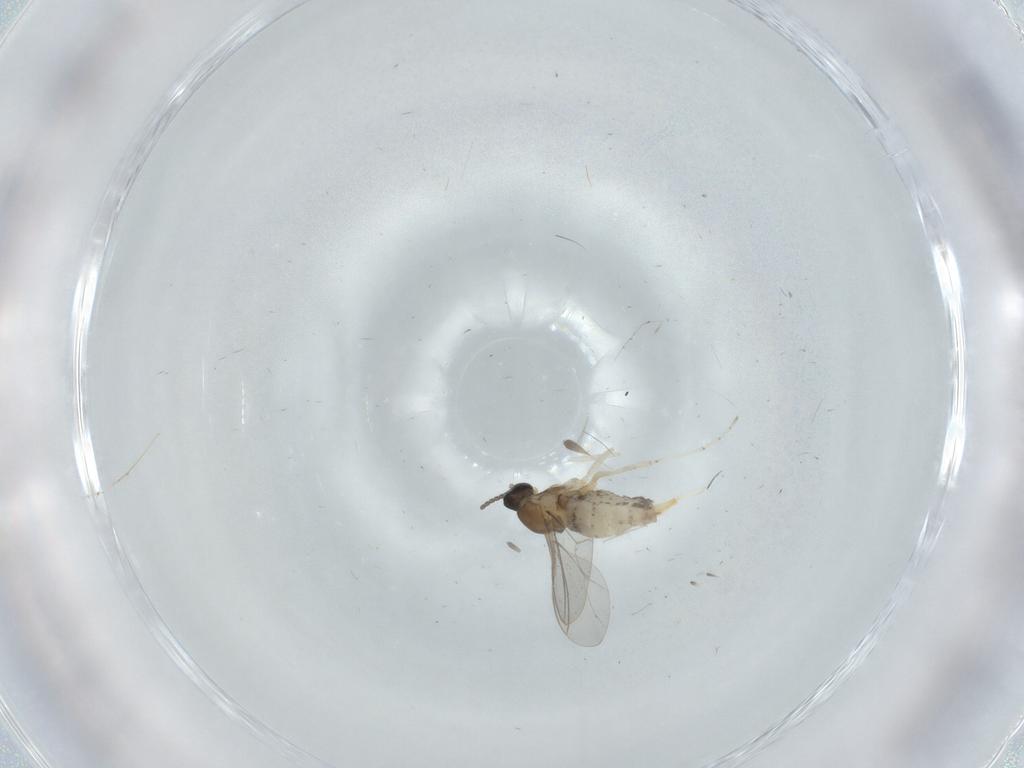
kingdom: Animalia
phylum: Arthropoda
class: Insecta
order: Diptera
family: Cecidomyiidae
